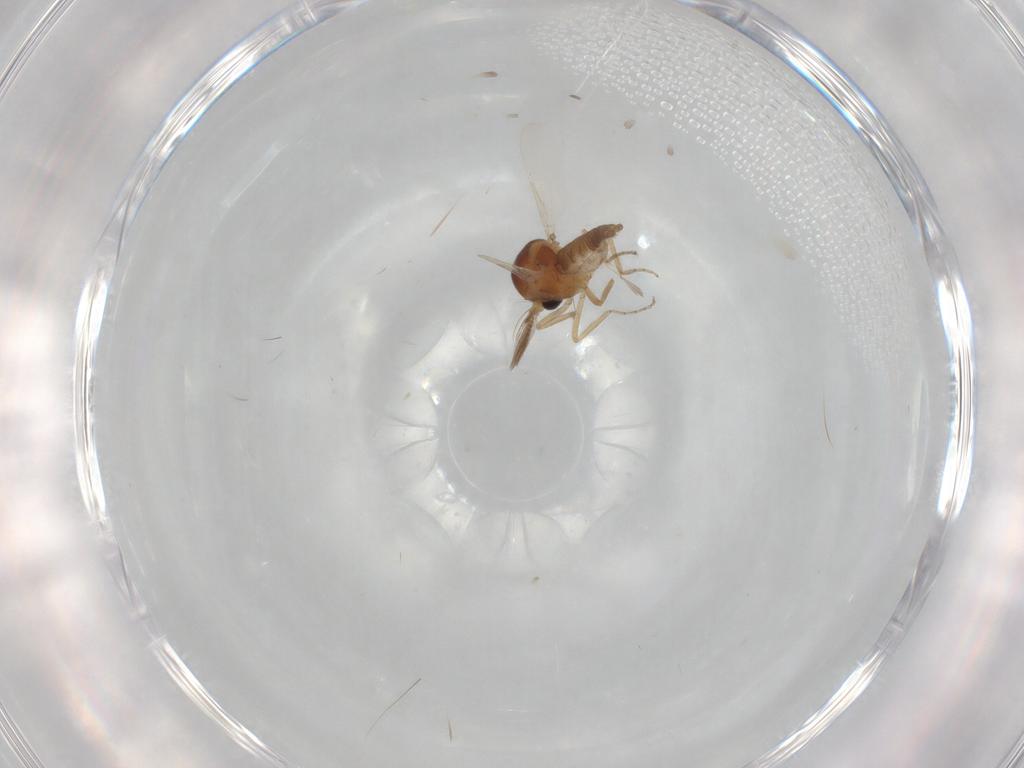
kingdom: Animalia
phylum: Arthropoda
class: Insecta
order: Diptera
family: Ceratopogonidae
